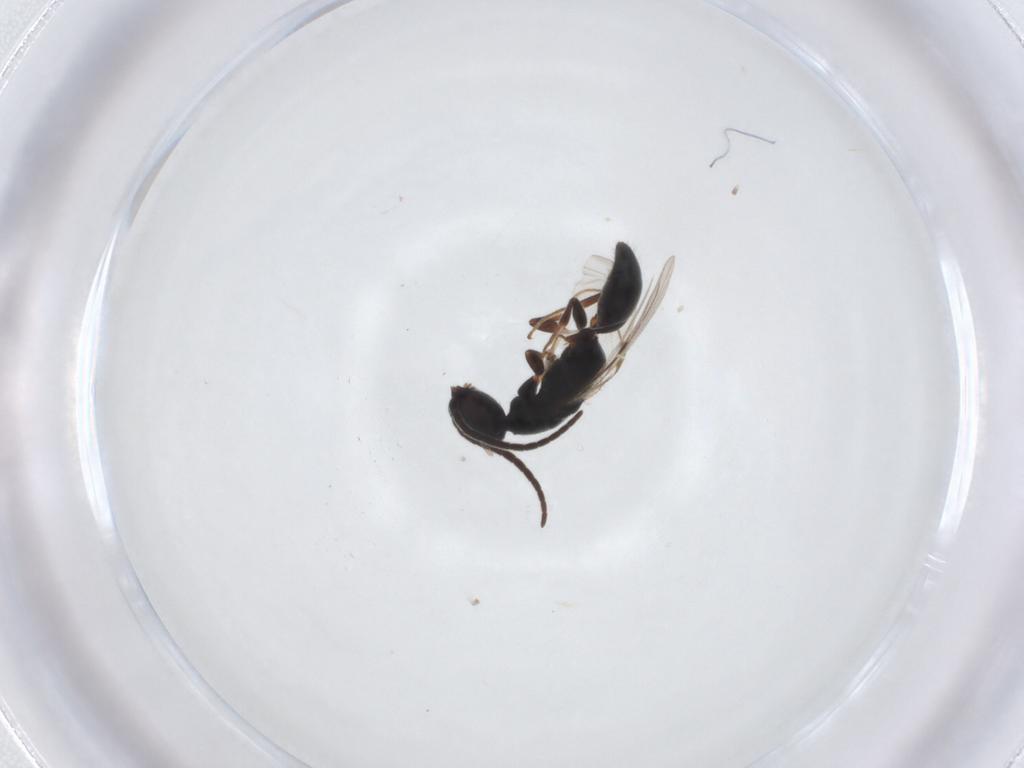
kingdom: Animalia
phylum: Arthropoda
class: Insecta
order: Hymenoptera
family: Bethylidae
